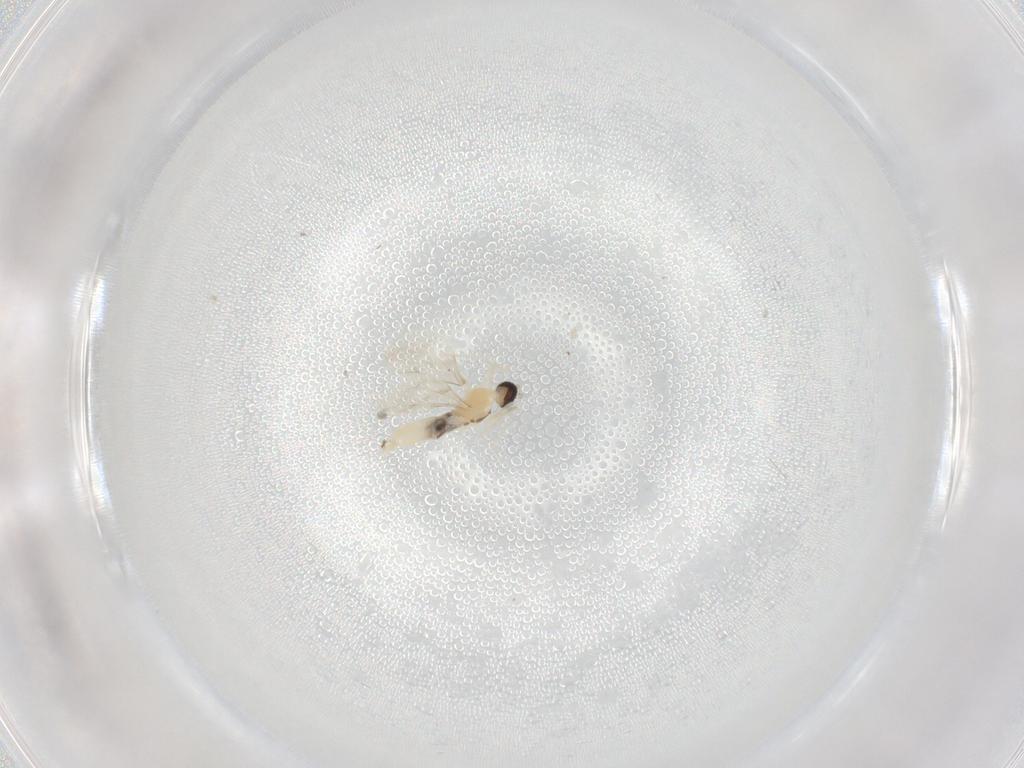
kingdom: Animalia
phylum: Arthropoda
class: Insecta
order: Diptera
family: Cecidomyiidae
